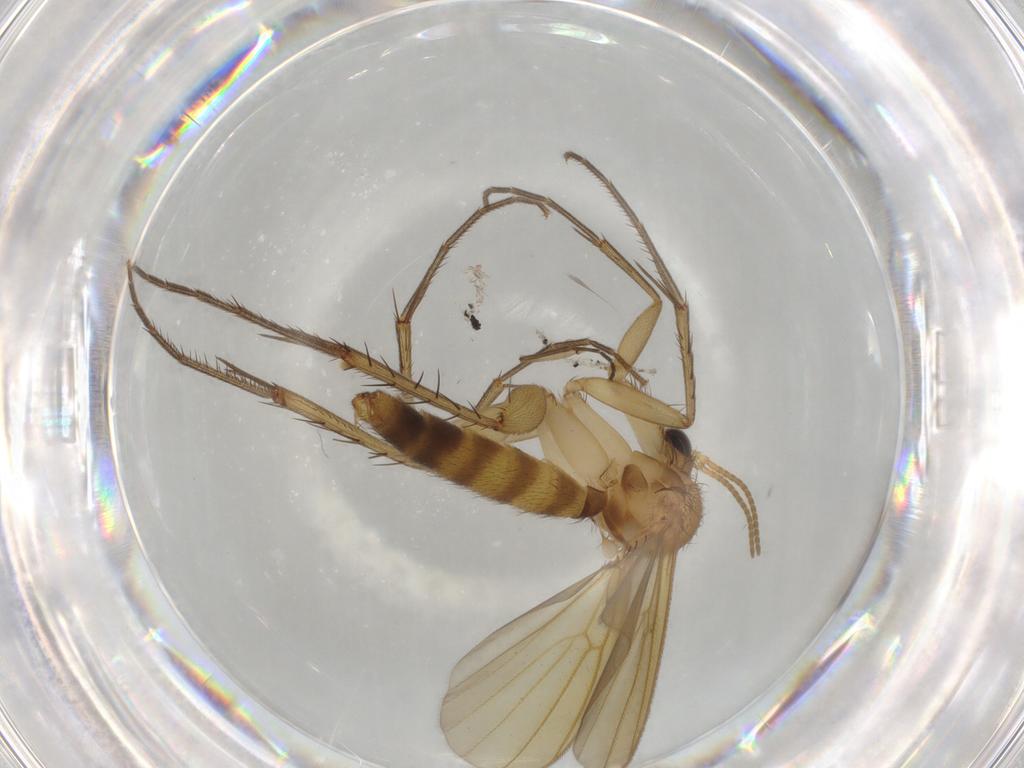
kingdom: Animalia
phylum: Arthropoda
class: Insecta
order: Diptera
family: Mycetophilidae
